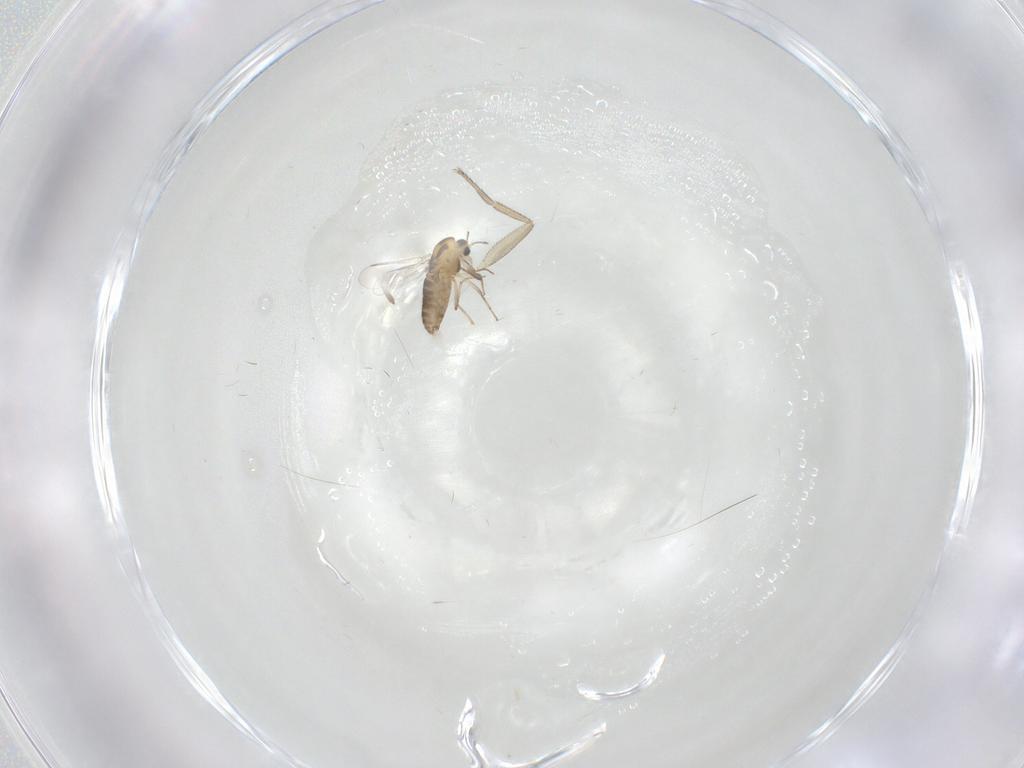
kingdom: Animalia
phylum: Arthropoda
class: Insecta
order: Diptera
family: Chironomidae
